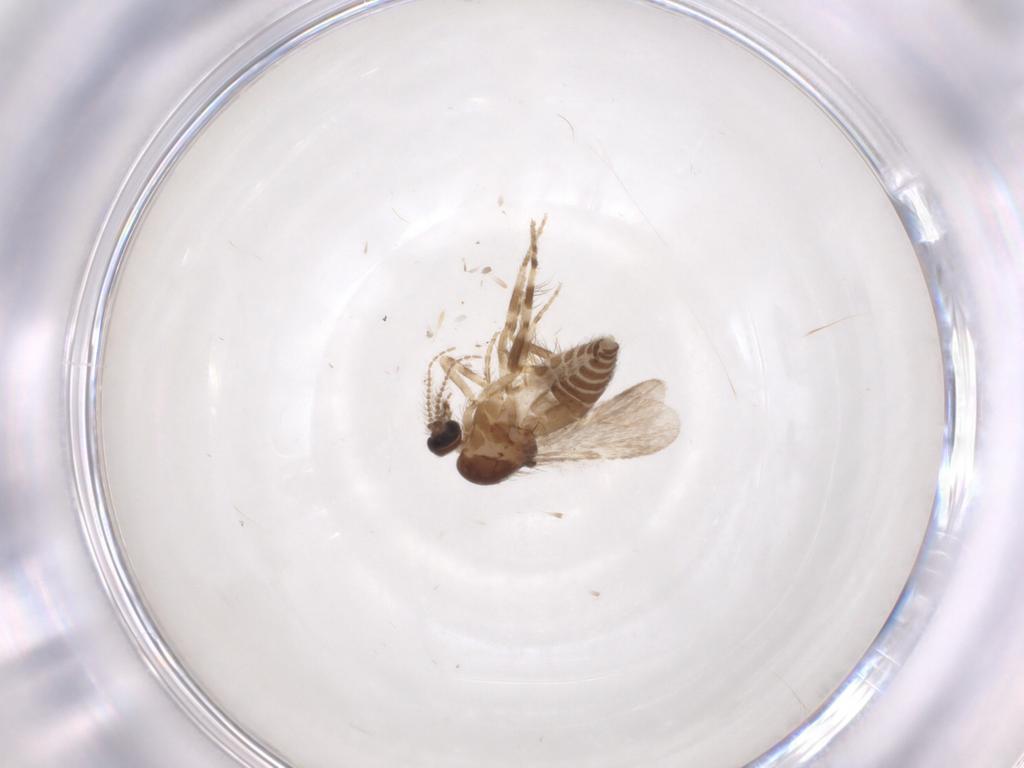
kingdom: Animalia
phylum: Arthropoda
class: Insecta
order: Diptera
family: Ceratopogonidae
